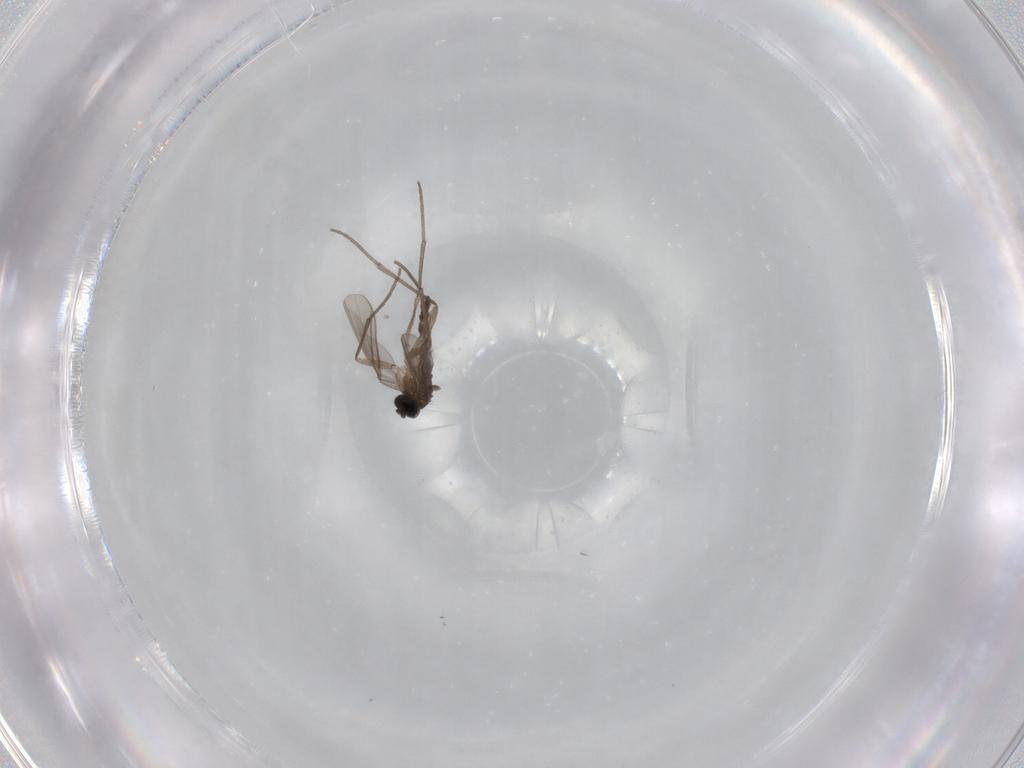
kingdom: Animalia
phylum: Arthropoda
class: Insecta
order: Diptera
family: Sciaridae
